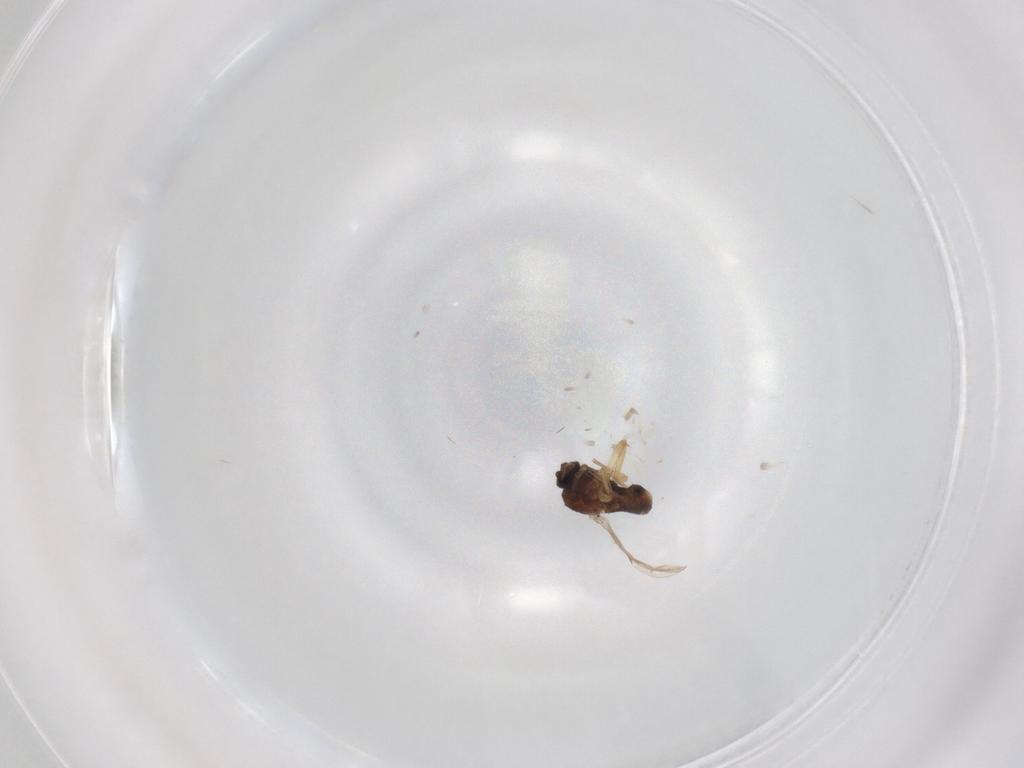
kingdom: Animalia
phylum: Arthropoda
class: Insecta
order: Diptera
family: Ceratopogonidae
